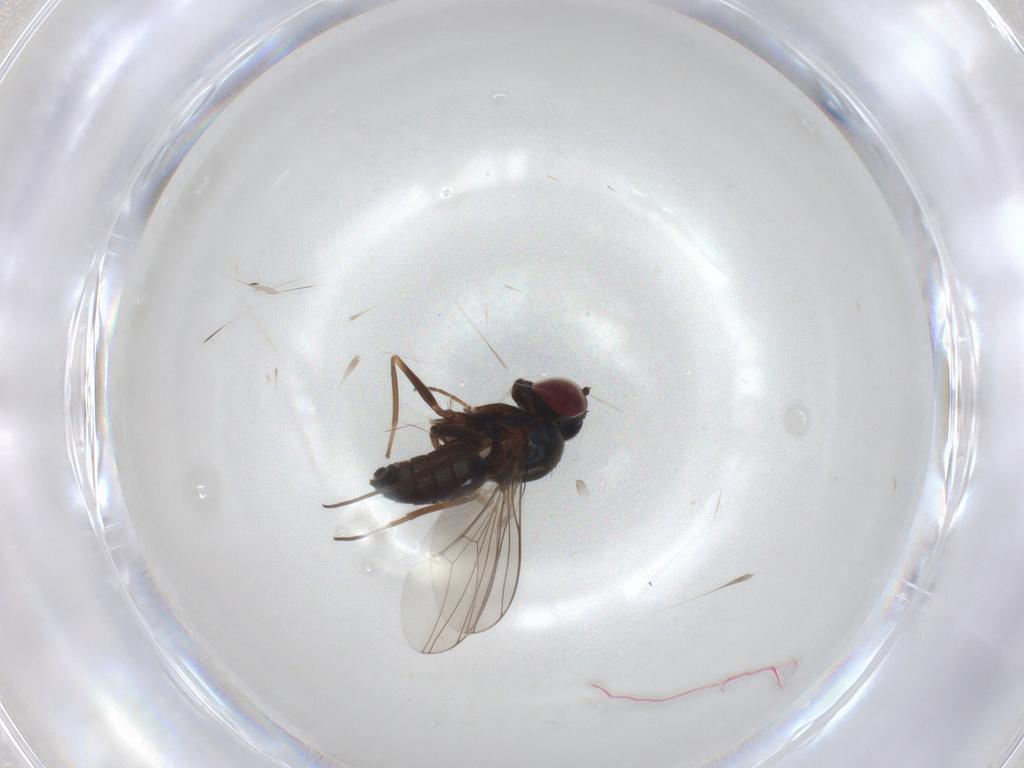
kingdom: Animalia
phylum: Arthropoda
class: Insecta
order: Diptera
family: Dolichopodidae
